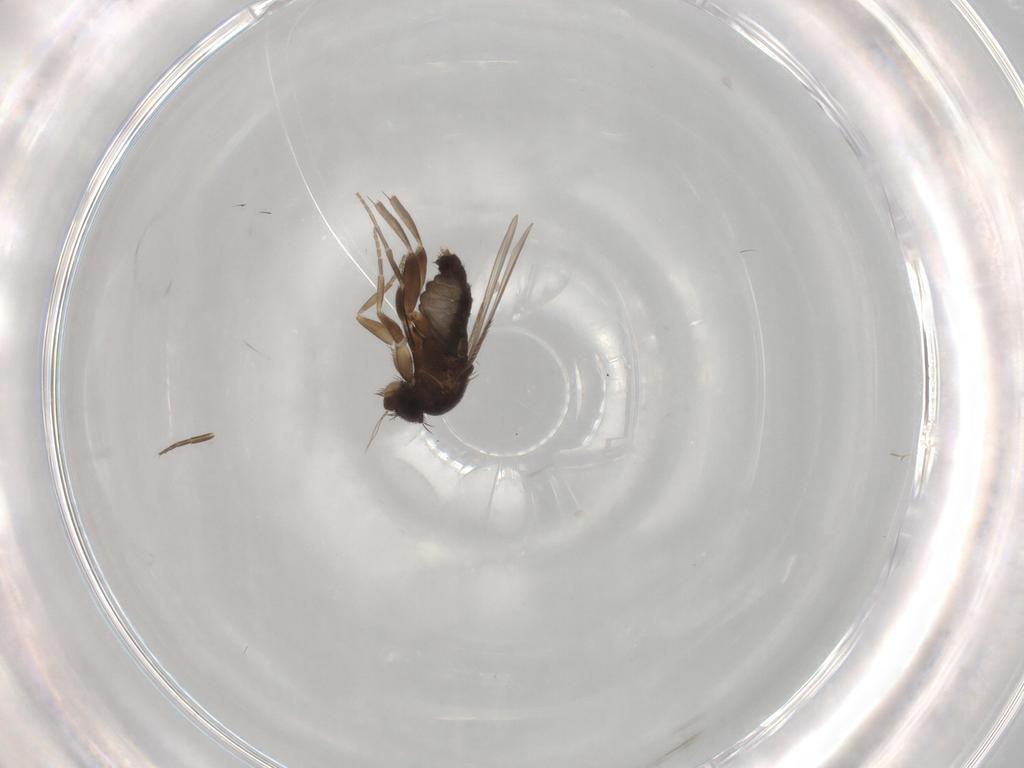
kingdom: Animalia
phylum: Arthropoda
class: Insecta
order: Diptera
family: Phoridae
